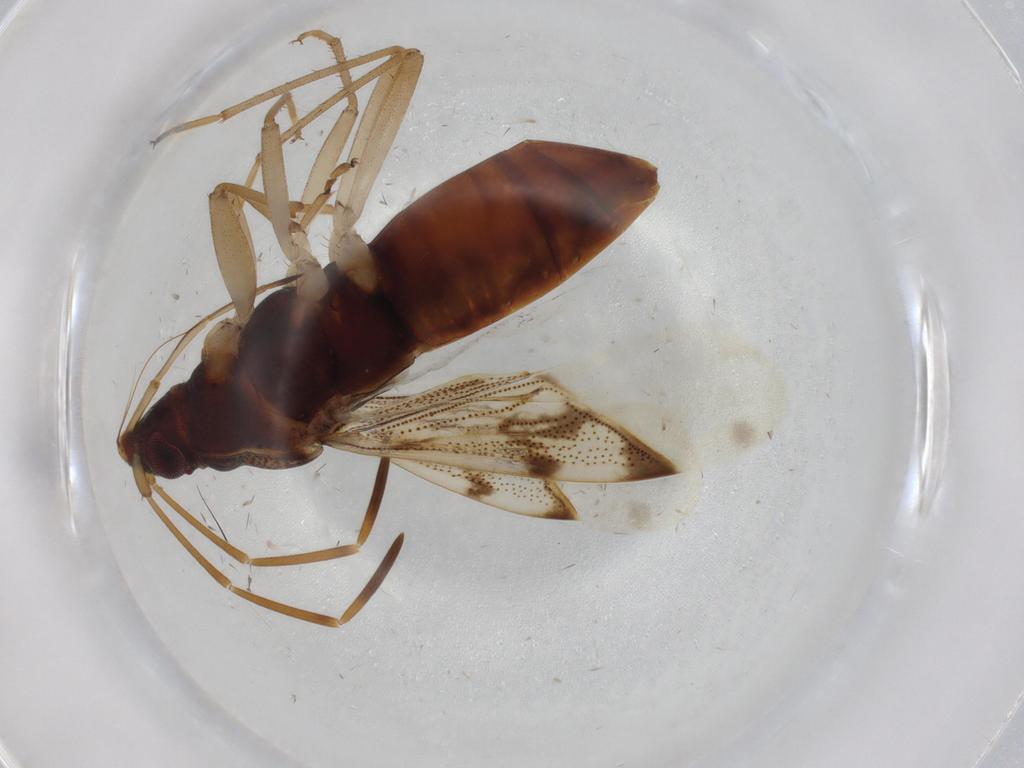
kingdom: Animalia
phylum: Arthropoda
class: Insecta
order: Hemiptera
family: Rhyparochromidae
